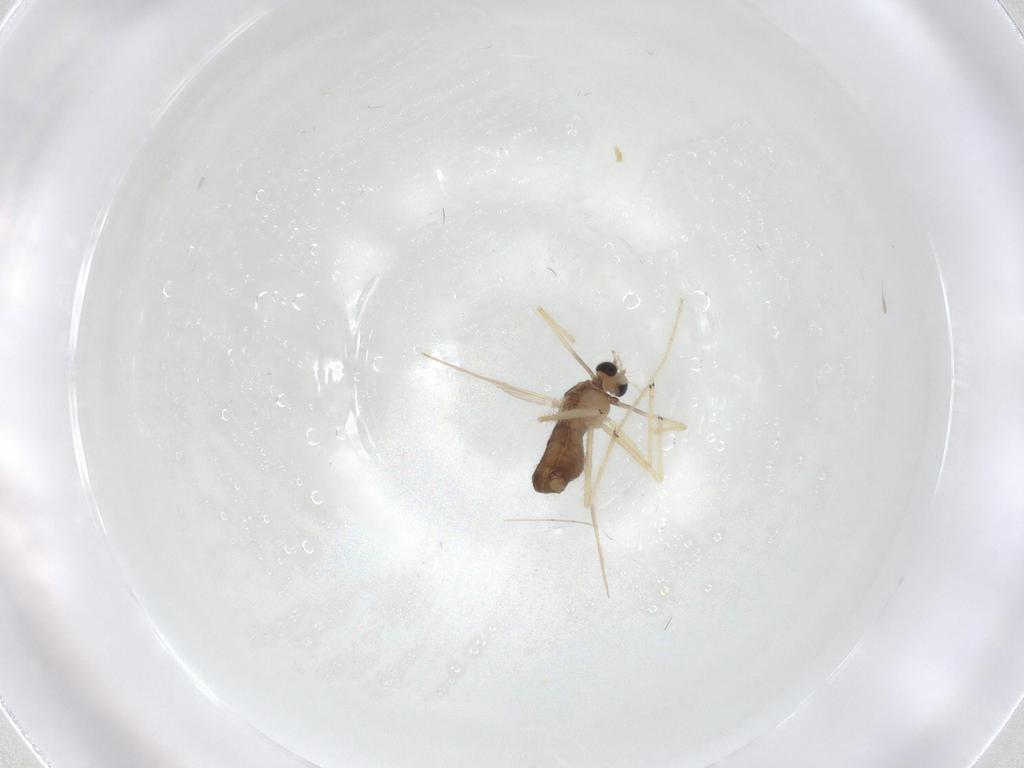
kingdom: Animalia
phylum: Arthropoda
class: Insecta
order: Diptera
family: Chironomidae
